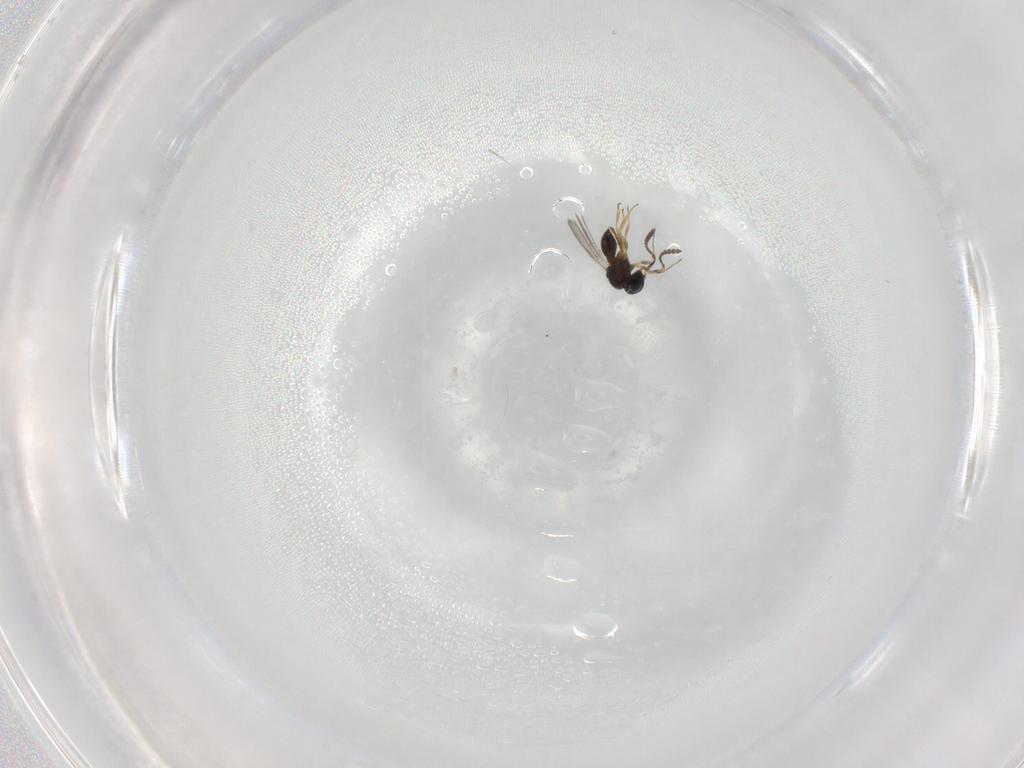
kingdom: Animalia
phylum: Arthropoda
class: Insecta
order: Hymenoptera
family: Scelionidae
